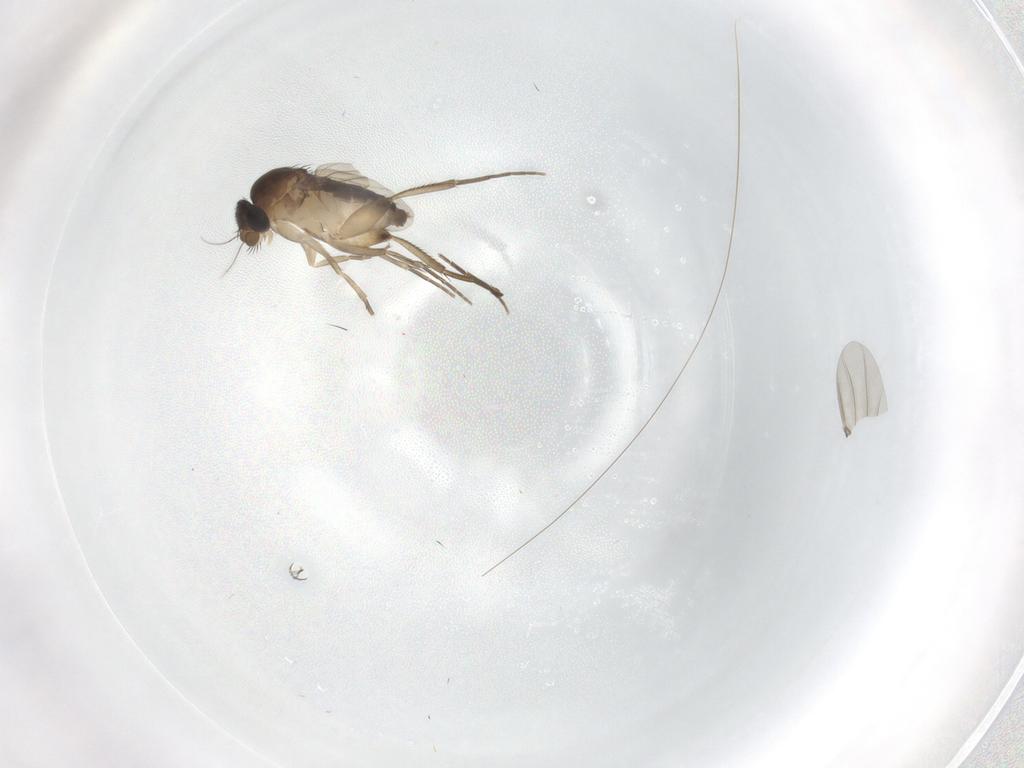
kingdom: Animalia
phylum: Arthropoda
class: Insecta
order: Diptera
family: Phoridae
